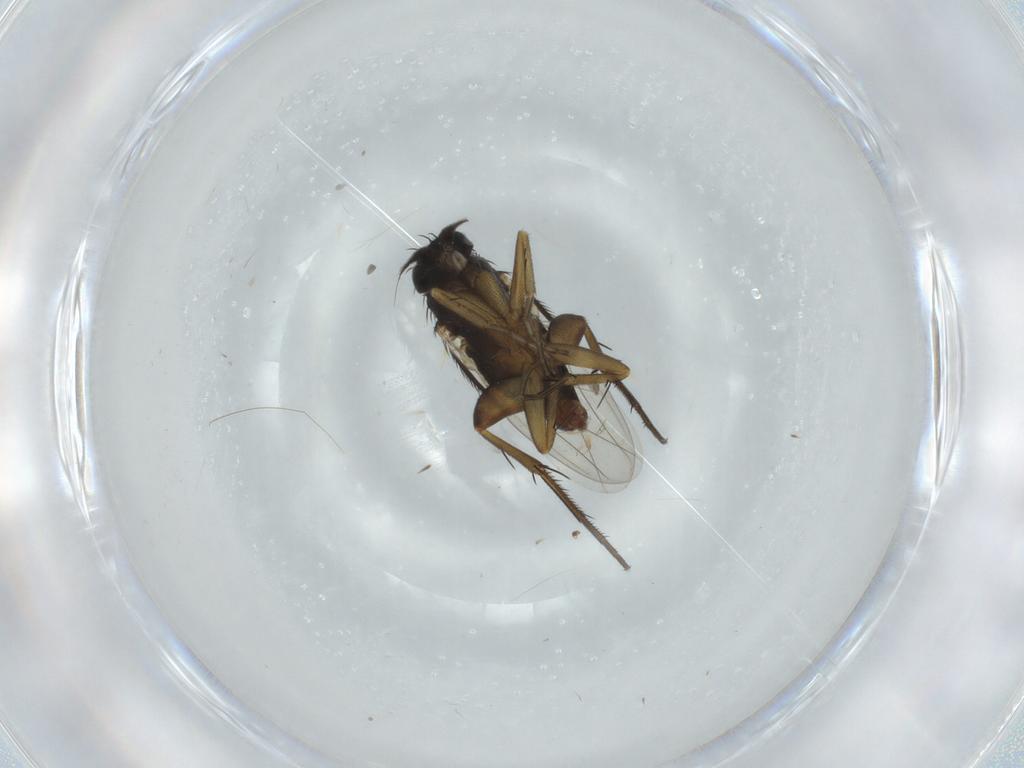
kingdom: Animalia
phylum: Arthropoda
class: Insecta
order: Diptera
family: Phoridae
